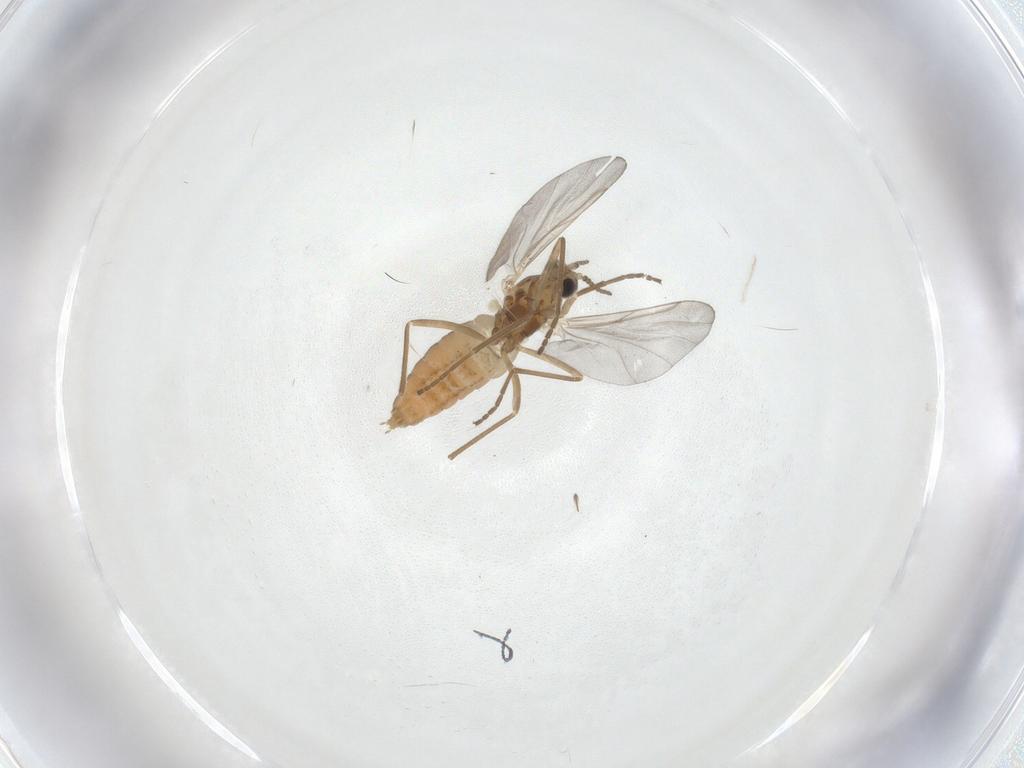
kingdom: Animalia
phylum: Arthropoda
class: Insecta
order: Diptera
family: Cecidomyiidae
